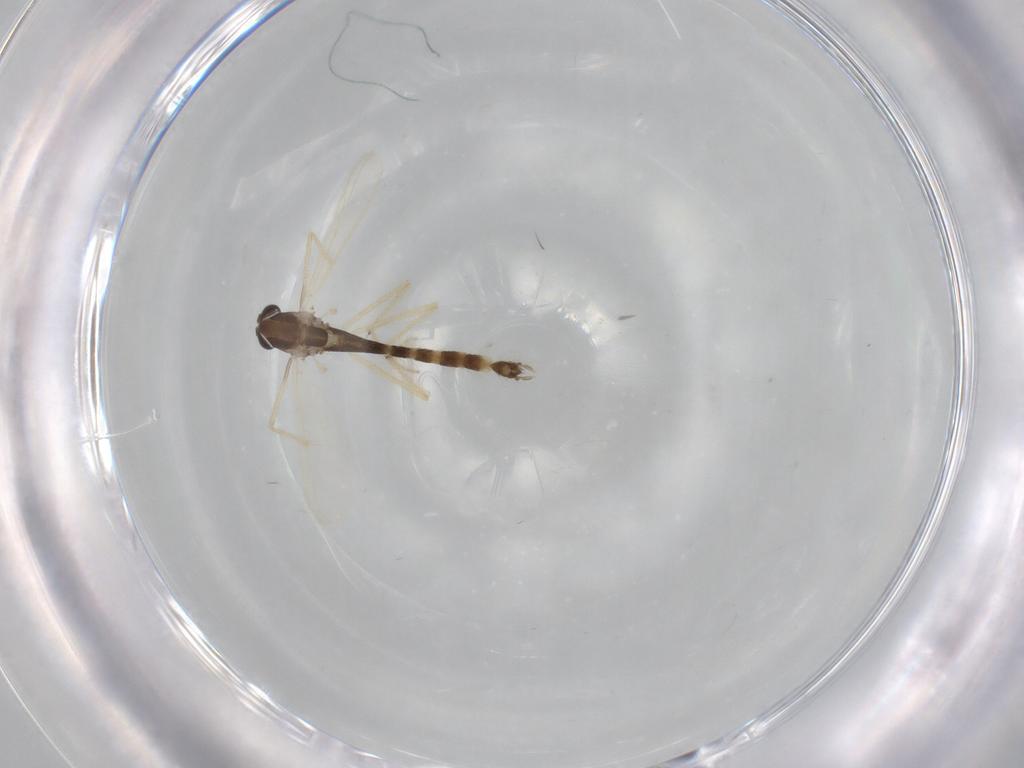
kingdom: Animalia
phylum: Arthropoda
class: Insecta
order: Diptera
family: Chironomidae
